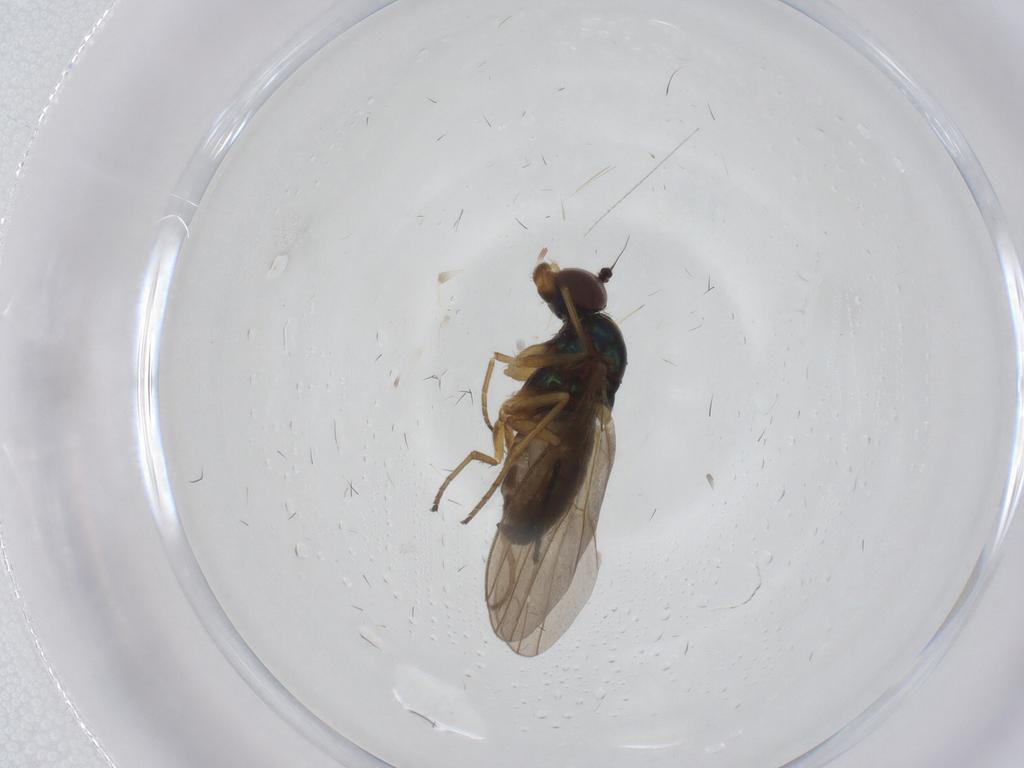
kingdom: Animalia
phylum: Arthropoda
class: Insecta
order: Diptera
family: Dolichopodidae
